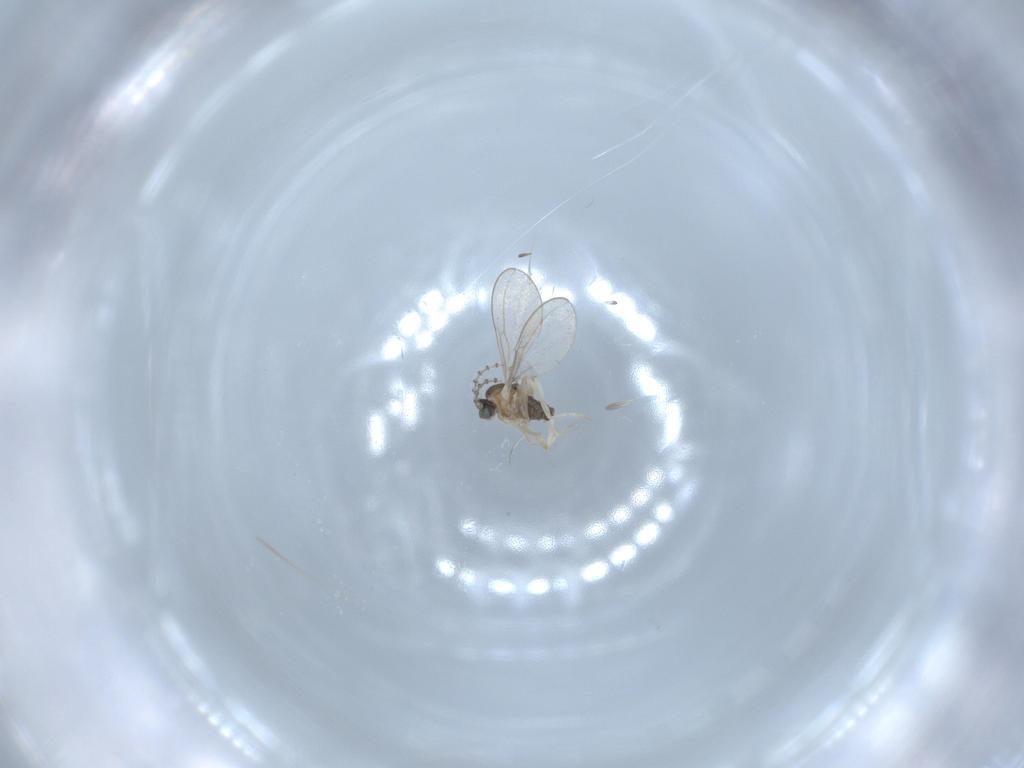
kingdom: Animalia
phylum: Arthropoda
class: Insecta
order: Diptera
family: Cecidomyiidae
